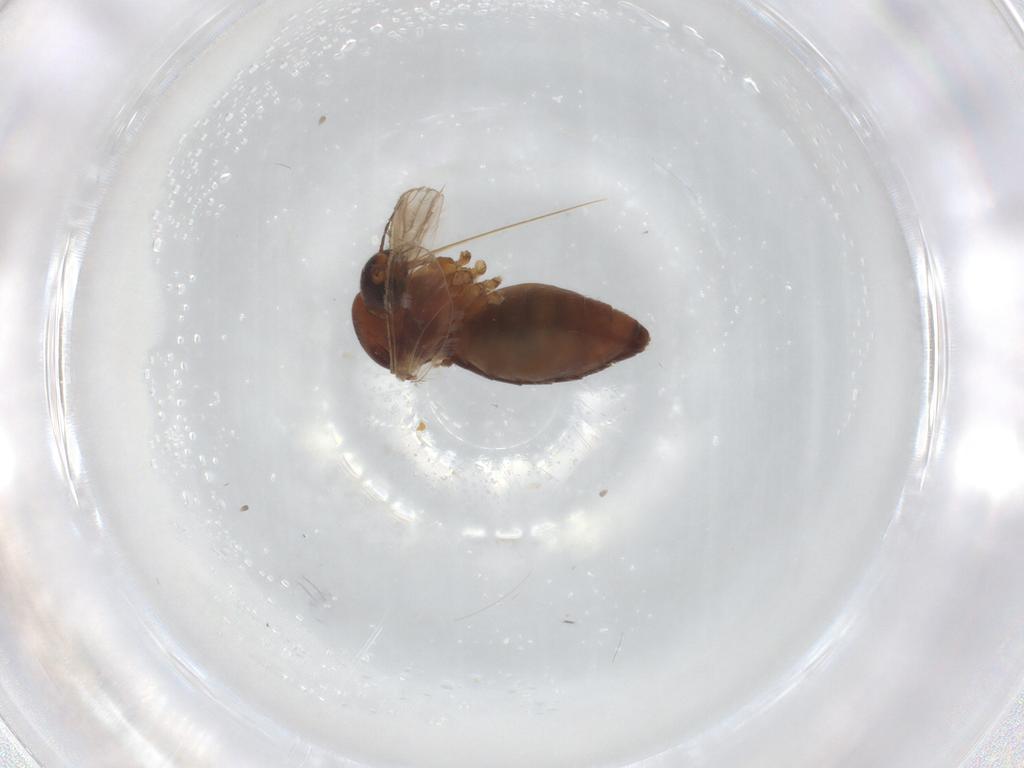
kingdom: Animalia
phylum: Arthropoda
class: Insecta
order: Diptera
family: Psychodidae
